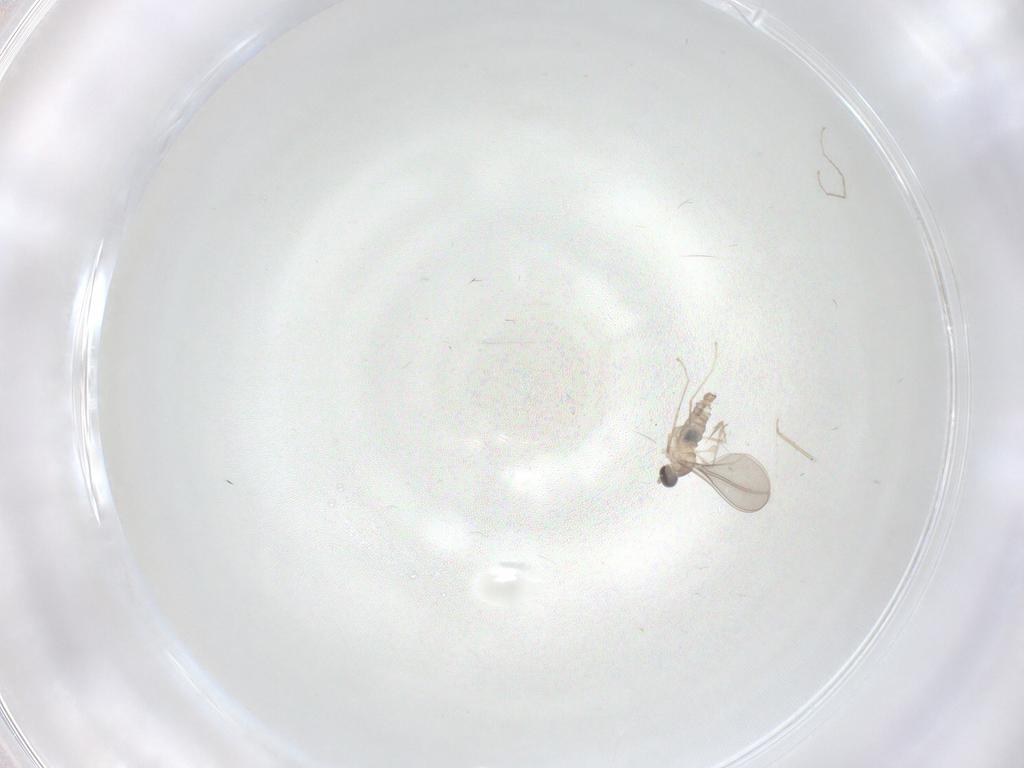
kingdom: Animalia
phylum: Arthropoda
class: Insecta
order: Diptera
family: Cecidomyiidae
